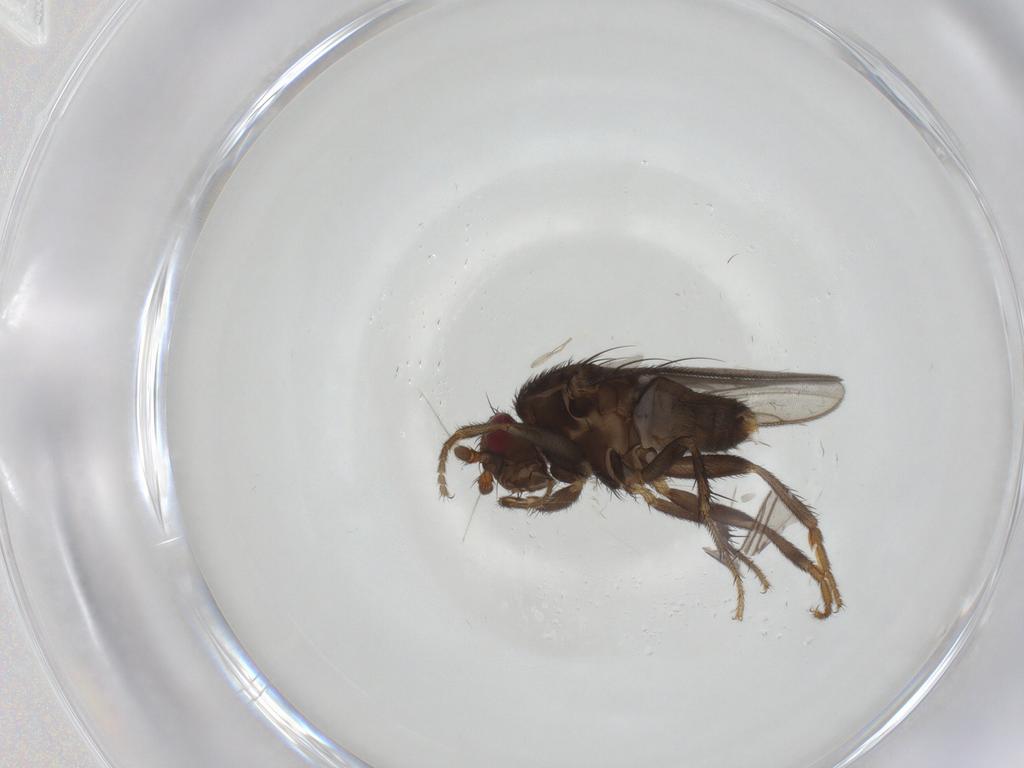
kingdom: Animalia
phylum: Arthropoda
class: Insecta
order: Diptera
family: Sphaeroceridae
